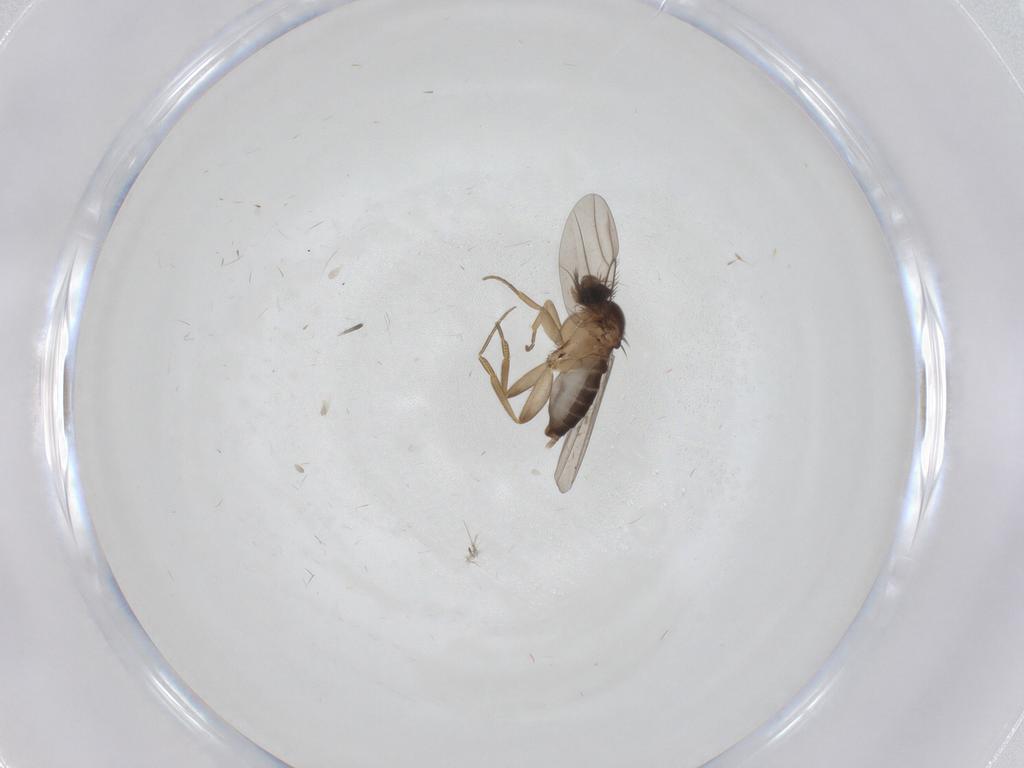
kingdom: Animalia
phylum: Arthropoda
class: Insecta
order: Diptera
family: Phoridae
